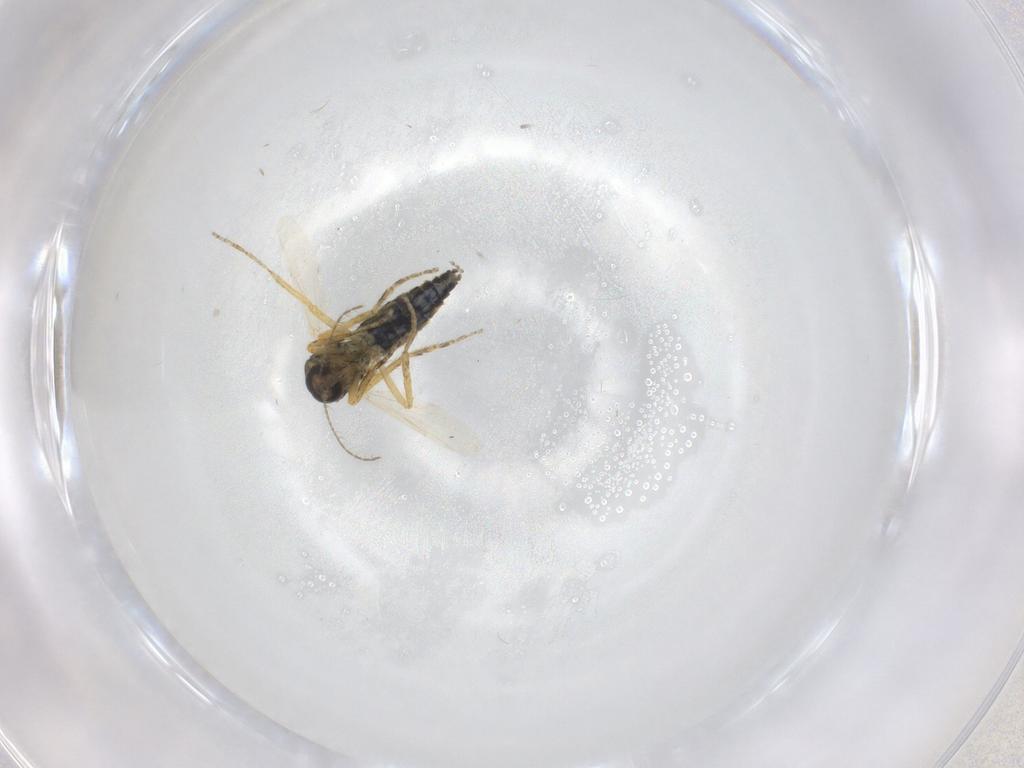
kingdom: Animalia
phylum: Arthropoda
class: Insecta
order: Diptera
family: Ceratopogonidae
